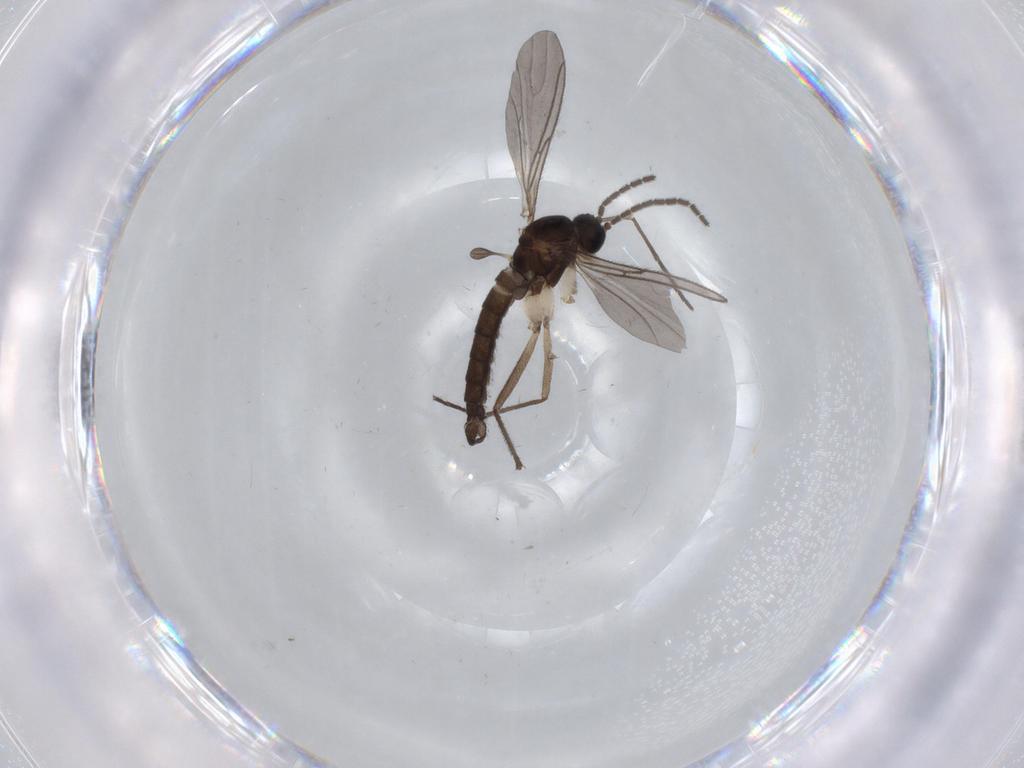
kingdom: Animalia
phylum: Arthropoda
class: Insecta
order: Diptera
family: Sciaridae
